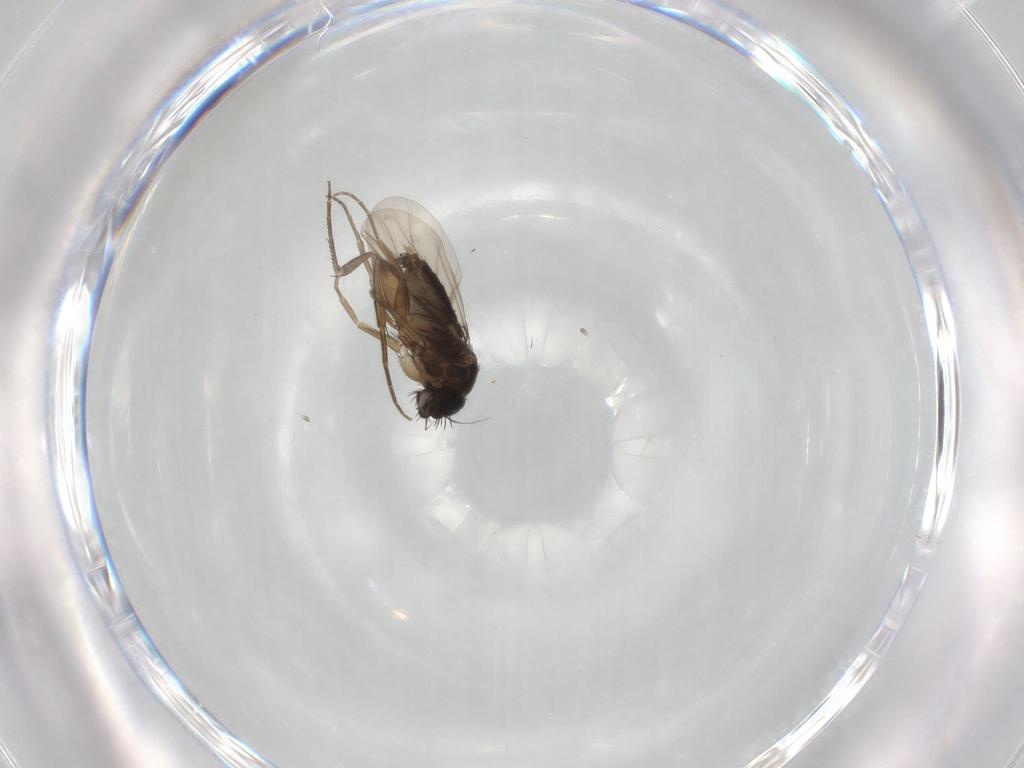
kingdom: Animalia
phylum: Arthropoda
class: Insecta
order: Diptera
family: Phoridae
